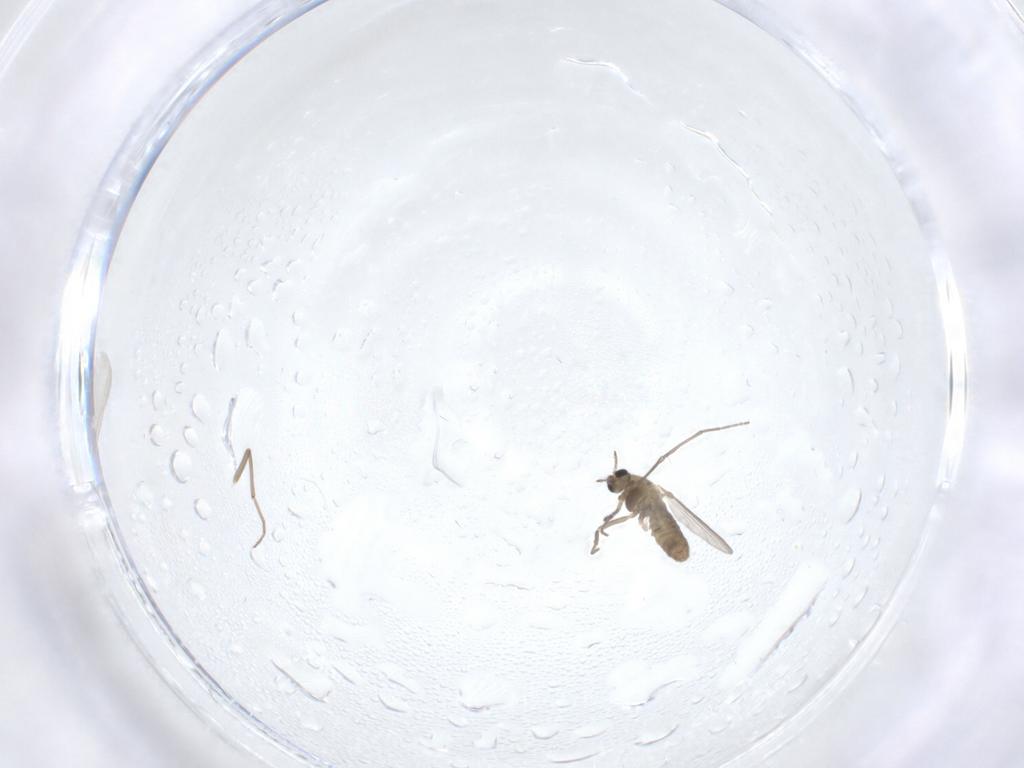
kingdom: Animalia
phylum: Arthropoda
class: Insecta
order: Diptera
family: Chironomidae
